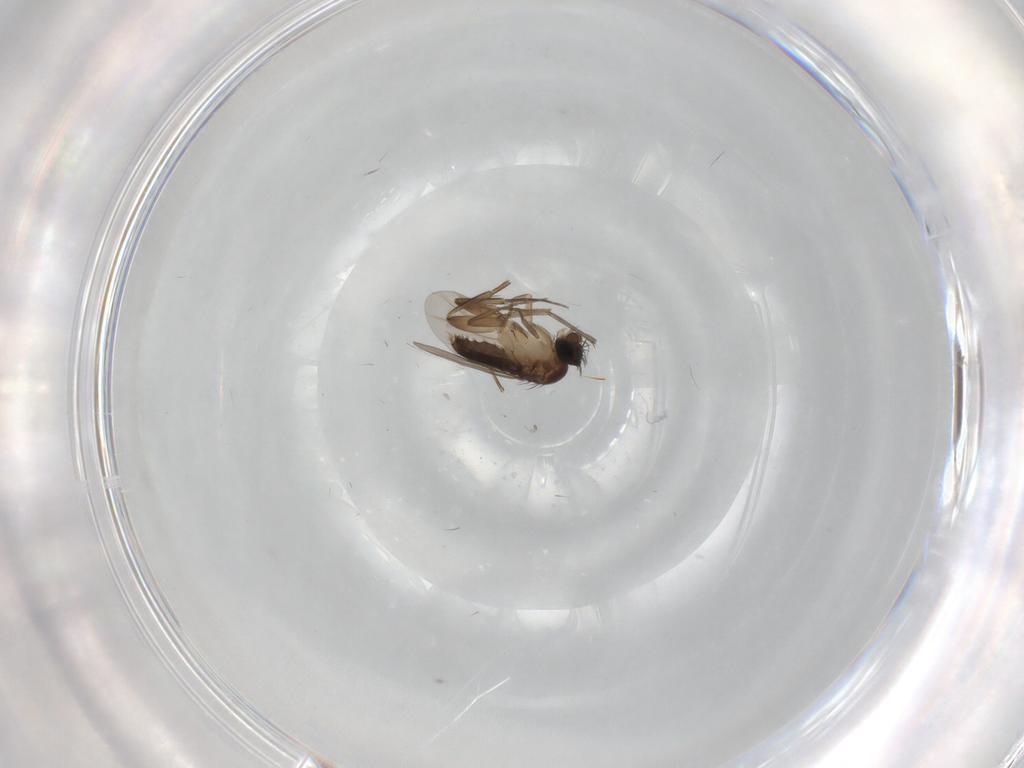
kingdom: Animalia
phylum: Arthropoda
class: Insecta
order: Diptera
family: Phoridae
